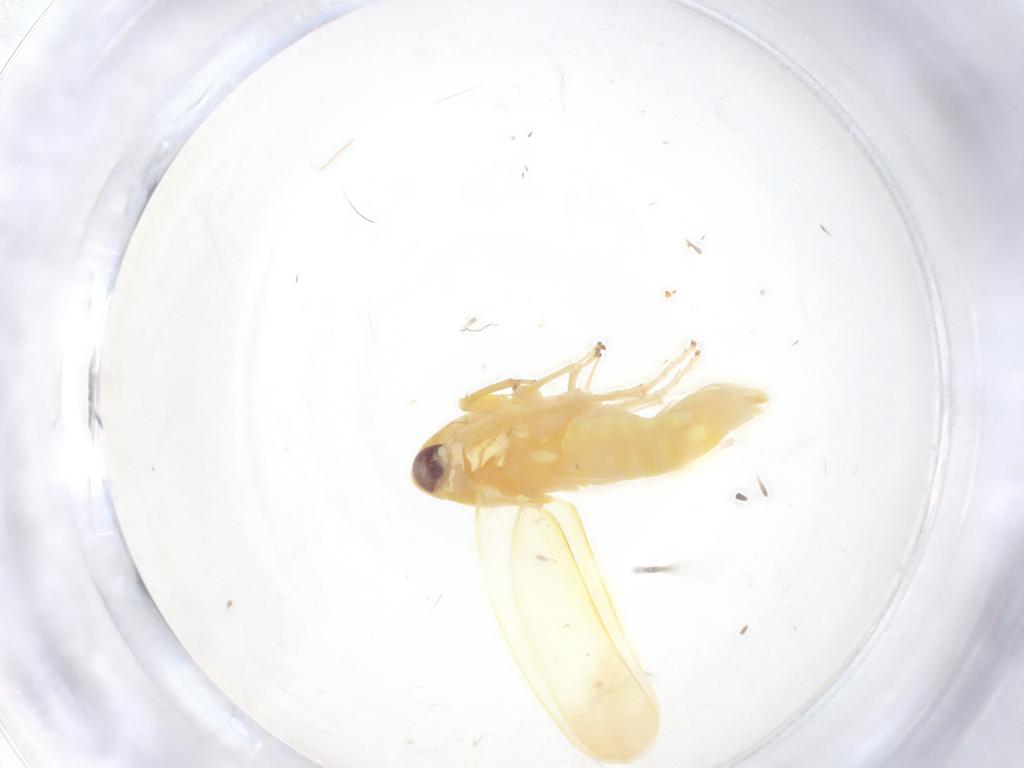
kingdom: Animalia
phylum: Arthropoda
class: Insecta
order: Hemiptera
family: Cicadellidae
